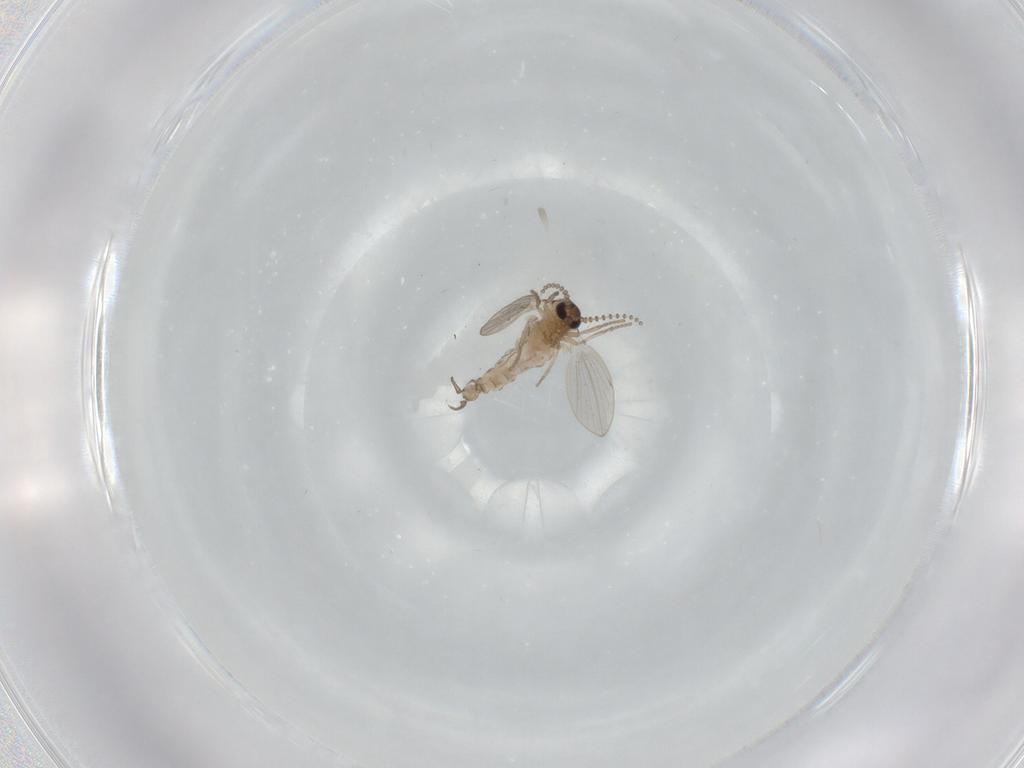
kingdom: Animalia
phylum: Arthropoda
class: Insecta
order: Diptera
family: Psychodidae
